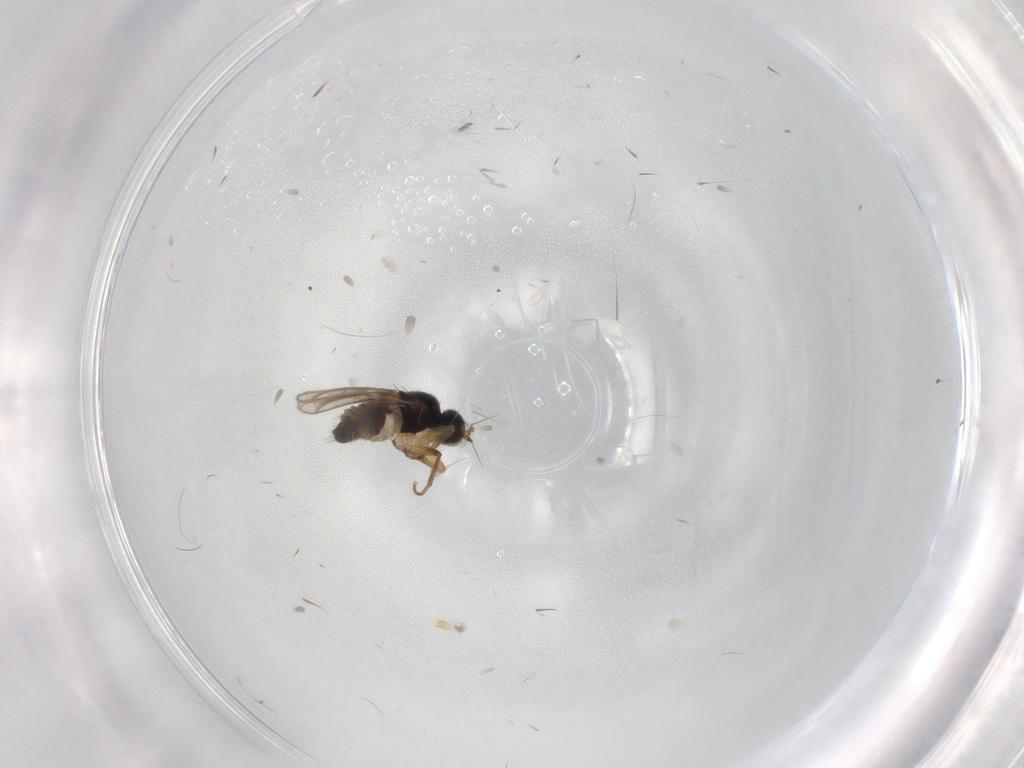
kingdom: Animalia
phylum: Arthropoda
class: Insecta
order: Diptera
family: Hybotidae
